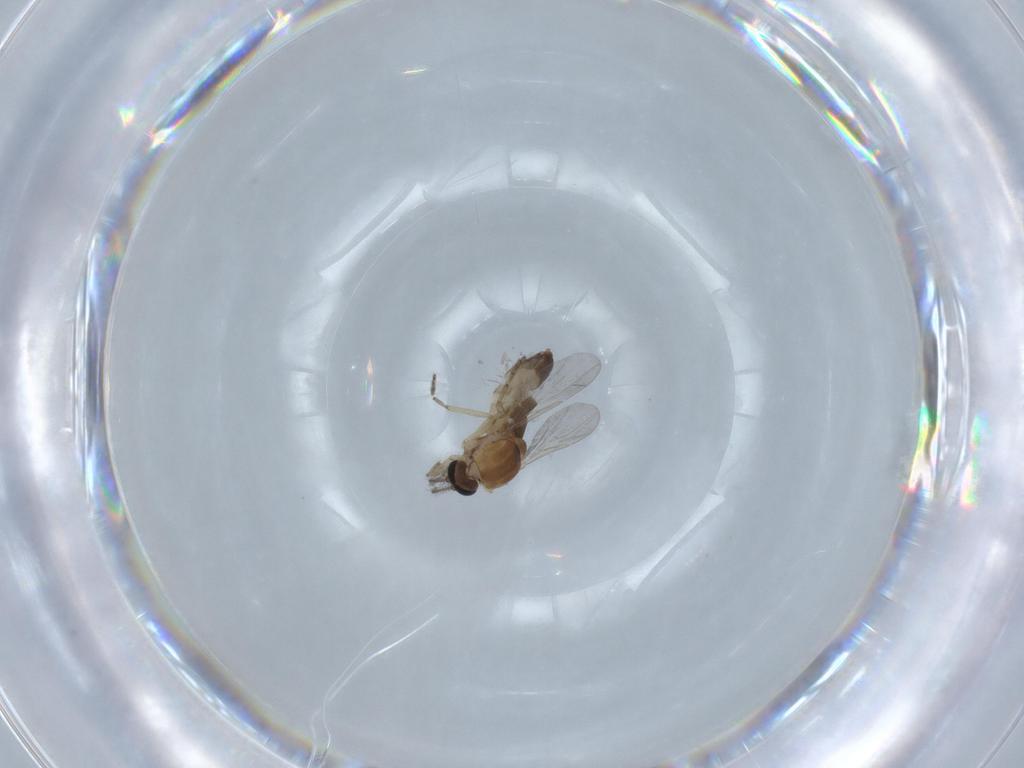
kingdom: Animalia
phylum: Arthropoda
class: Insecta
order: Diptera
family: Ceratopogonidae
